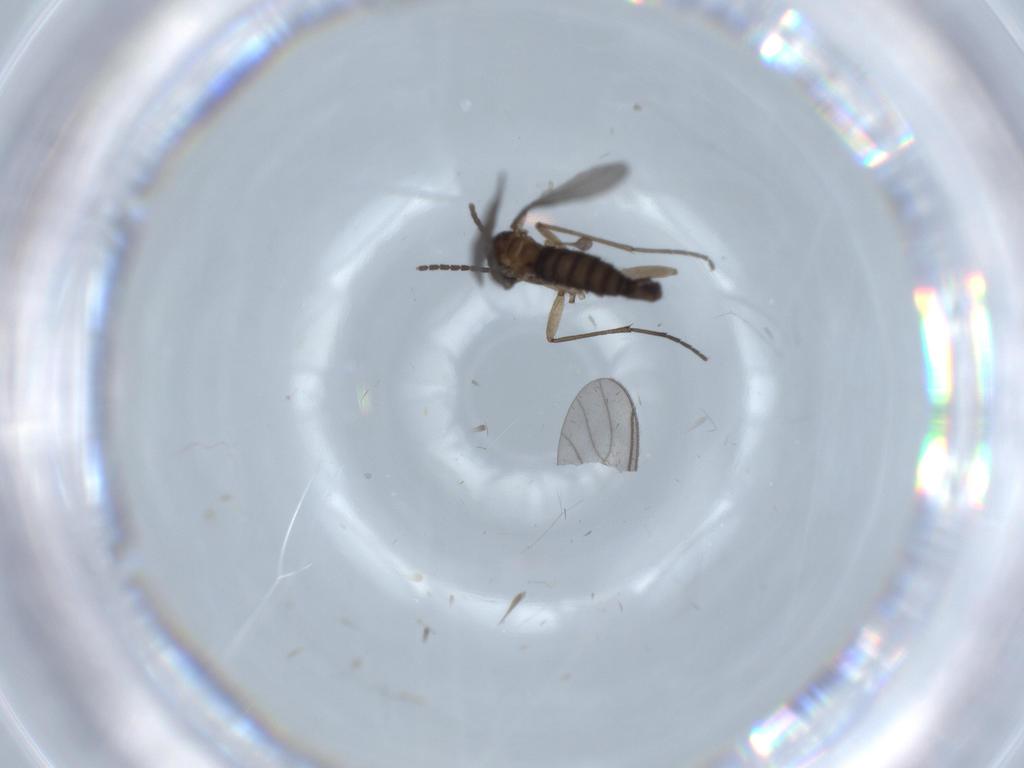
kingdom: Animalia
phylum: Arthropoda
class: Insecta
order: Diptera
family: Sciaridae
